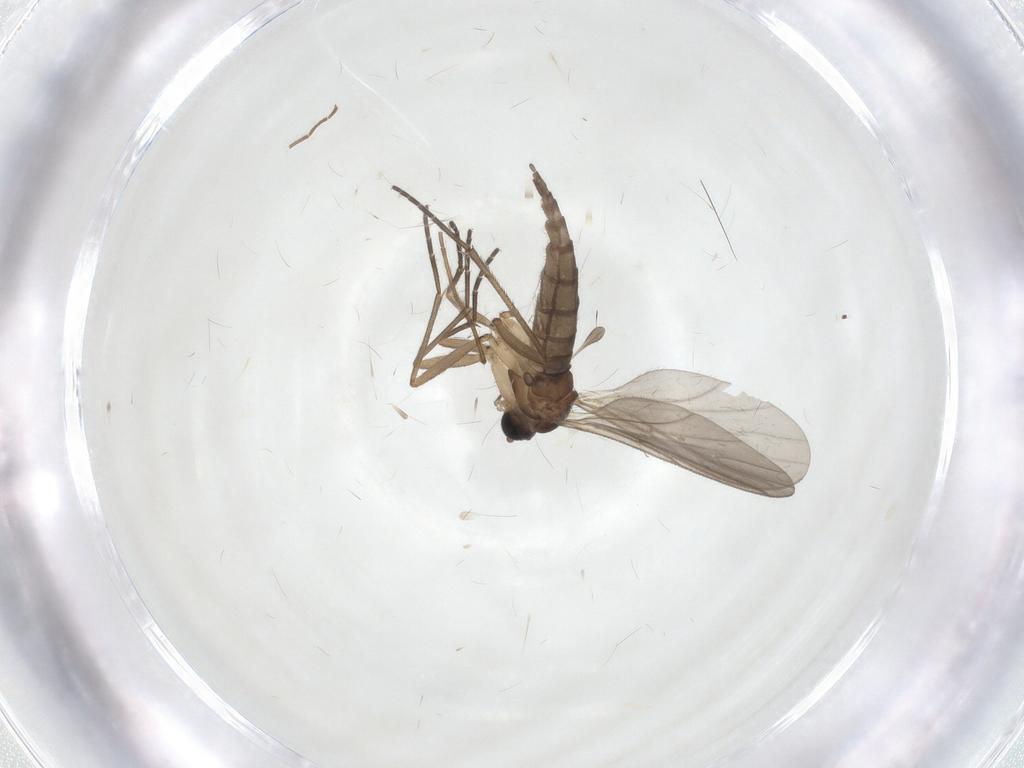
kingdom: Animalia
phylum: Arthropoda
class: Insecta
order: Diptera
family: Chironomidae
